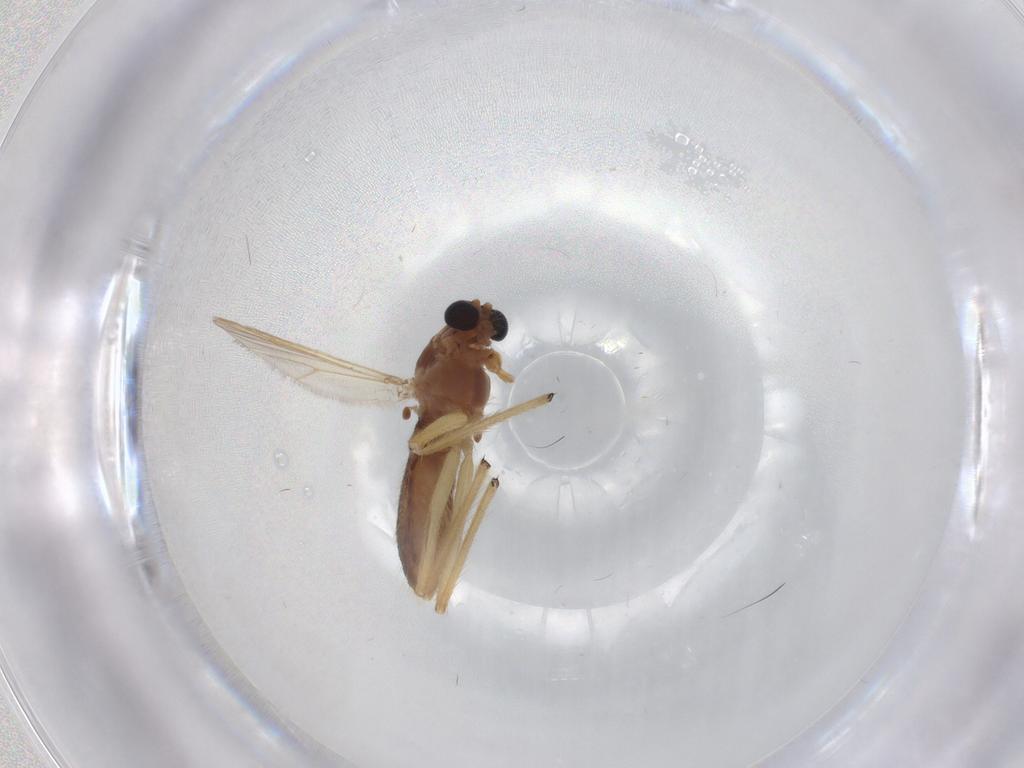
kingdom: Animalia
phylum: Arthropoda
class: Insecta
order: Diptera
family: Chironomidae
